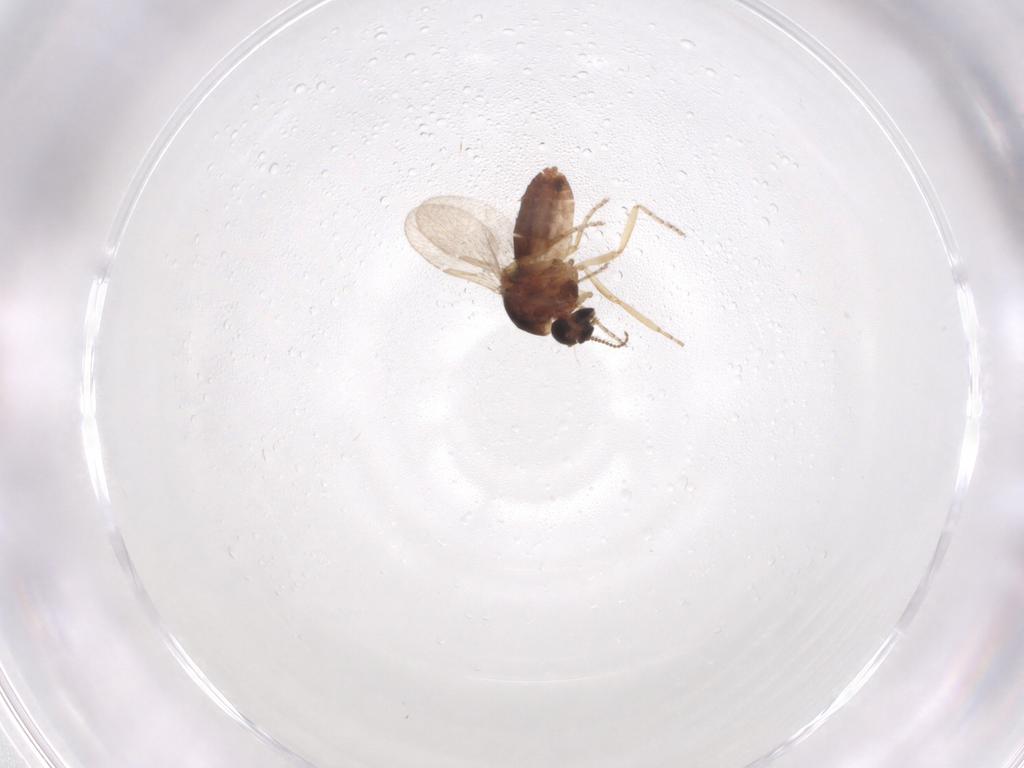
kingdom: Animalia
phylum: Arthropoda
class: Insecta
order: Diptera
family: Ceratopogonidae
